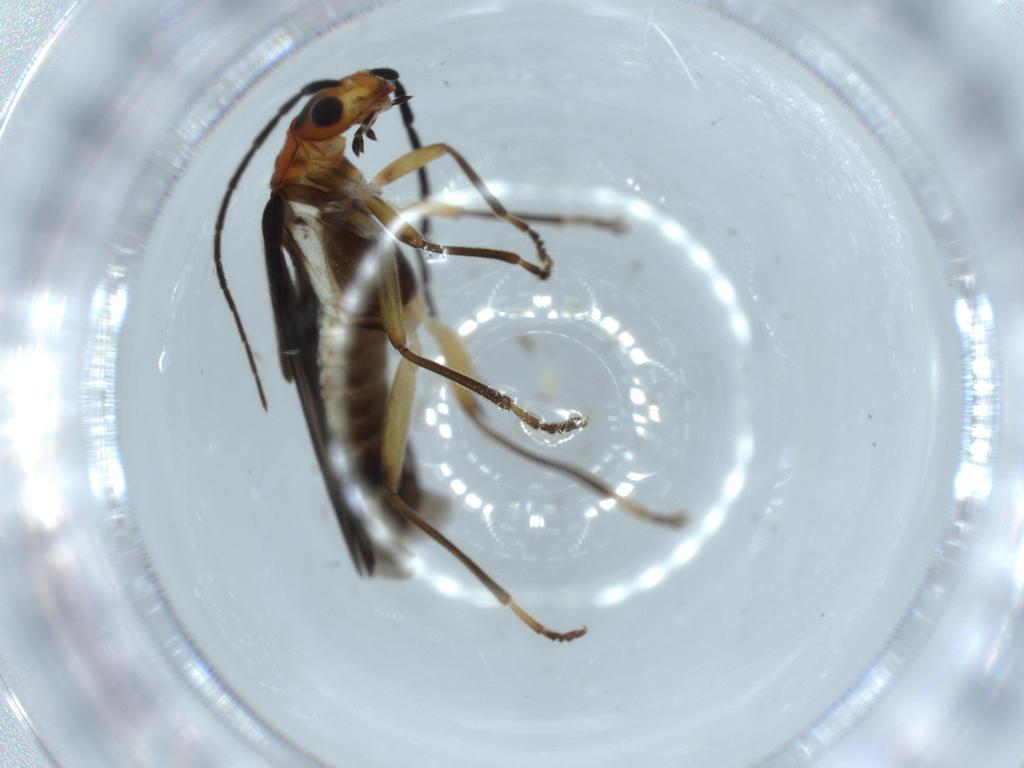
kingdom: Animalia
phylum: Arthropoda
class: Insecta
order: Coleoptera
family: Cantharidae
